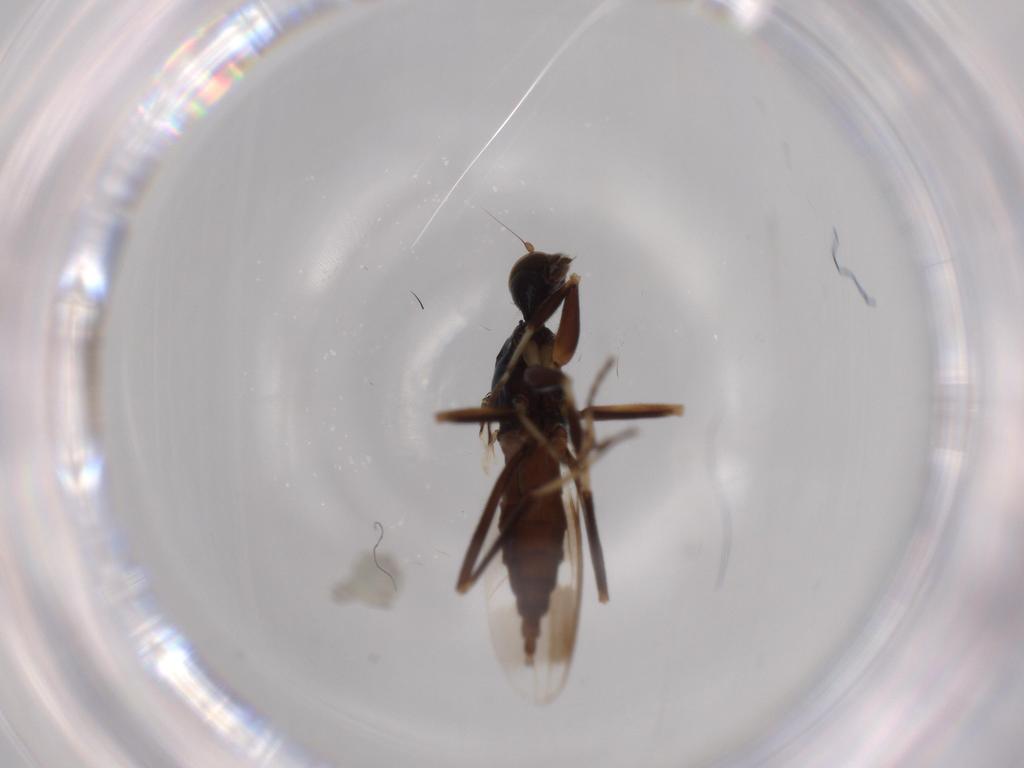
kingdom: Animalia
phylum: Arthropoda
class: Insecta
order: Diptera
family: Hybotidae
